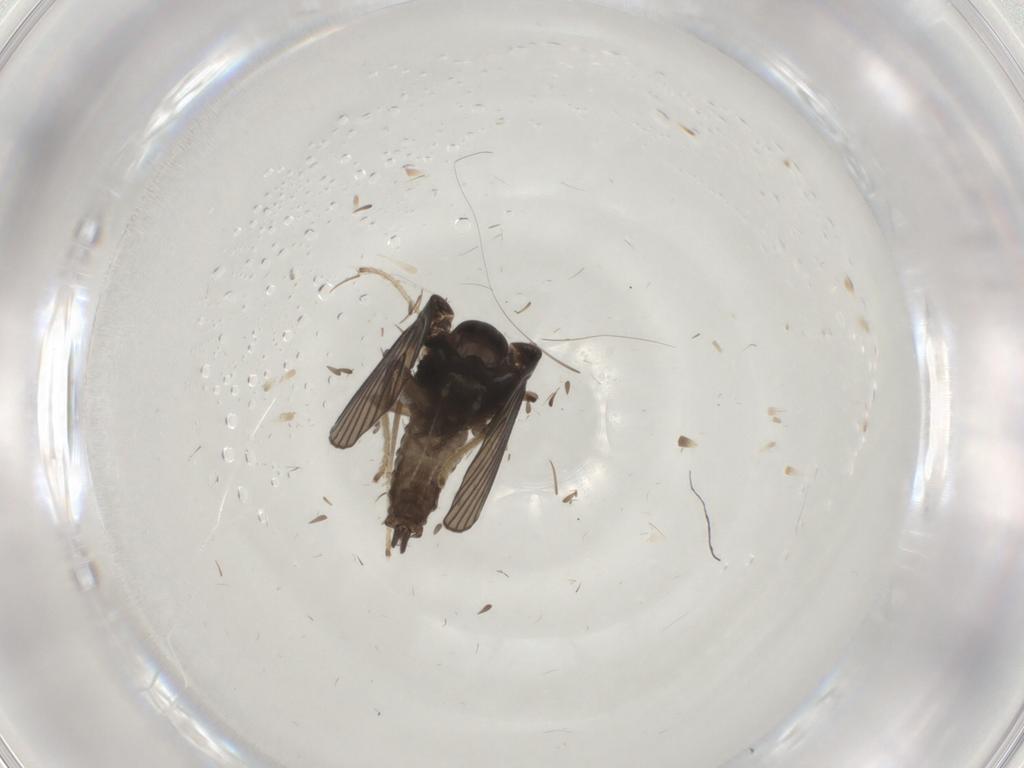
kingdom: Animalia
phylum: Arthropoda
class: Insecta
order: Diptera
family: Psychodidae
